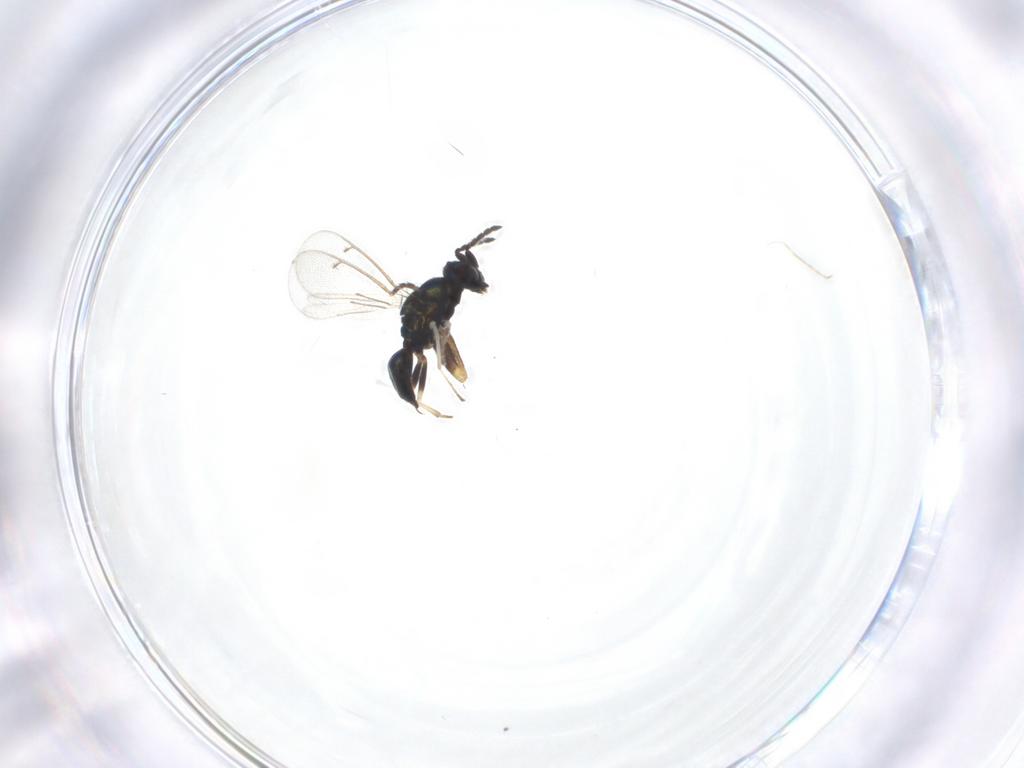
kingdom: Animalia
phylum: Arthropoda
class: Insecta
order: Hymenoptera
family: Eulophidae
